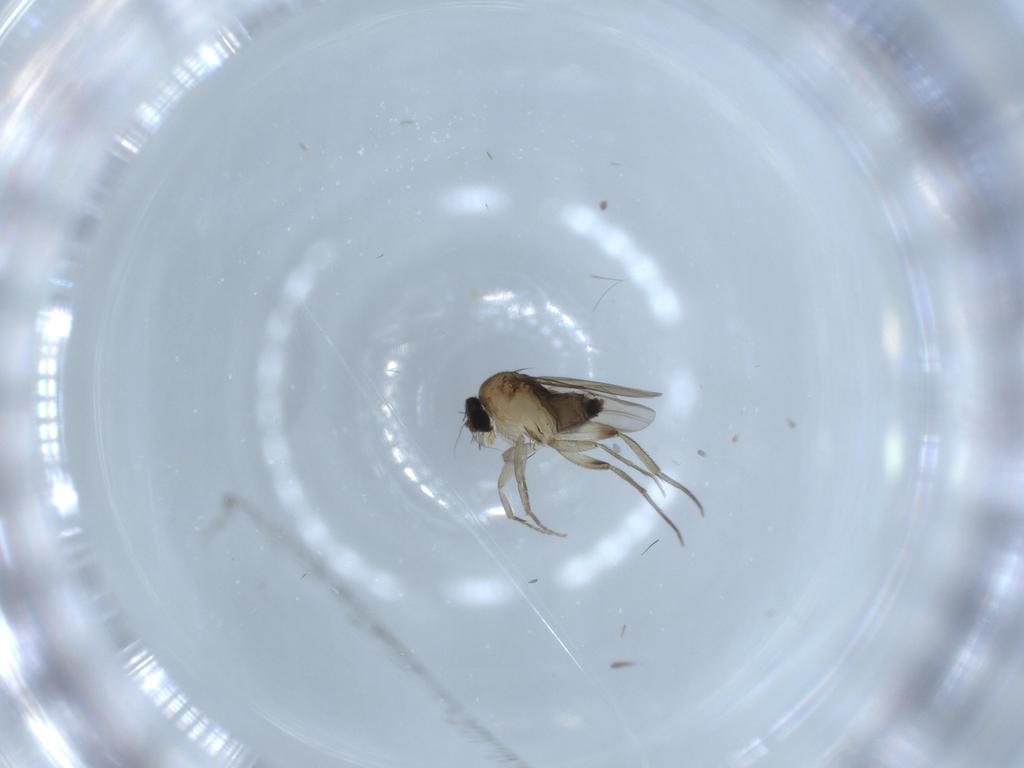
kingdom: Animalia
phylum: Arthropoda
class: Insecta
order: Diptera
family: Phoridae
